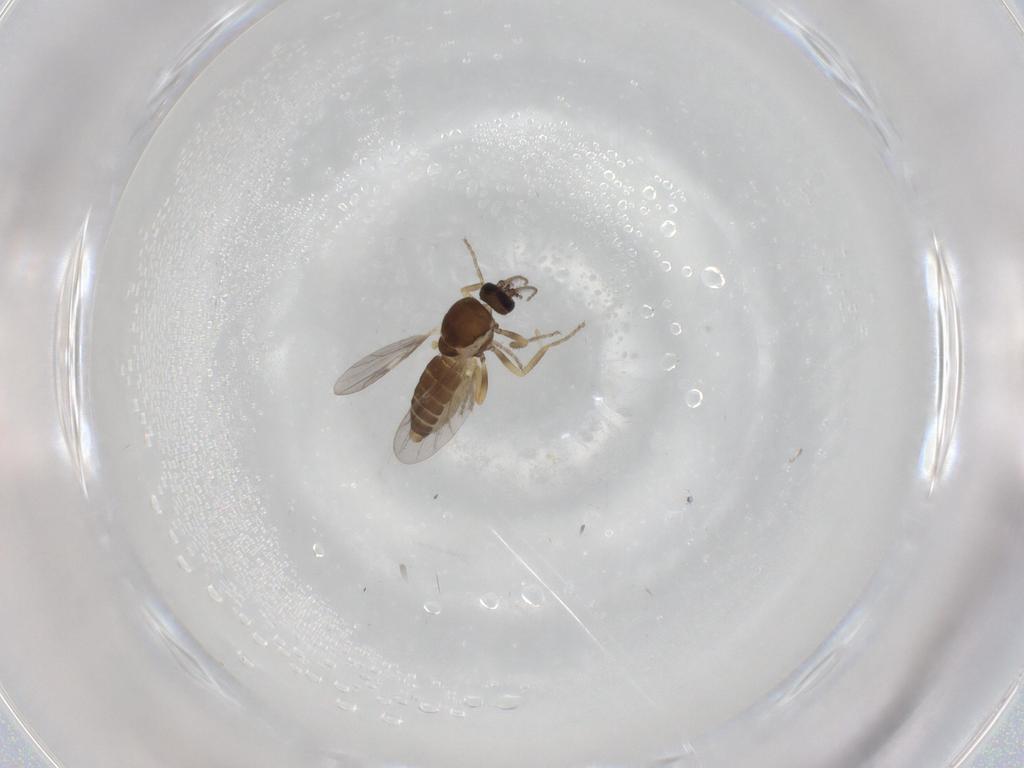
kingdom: Animalia
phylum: Arthropoda
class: Insecta
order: Diptera
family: Ceratopogonidae
